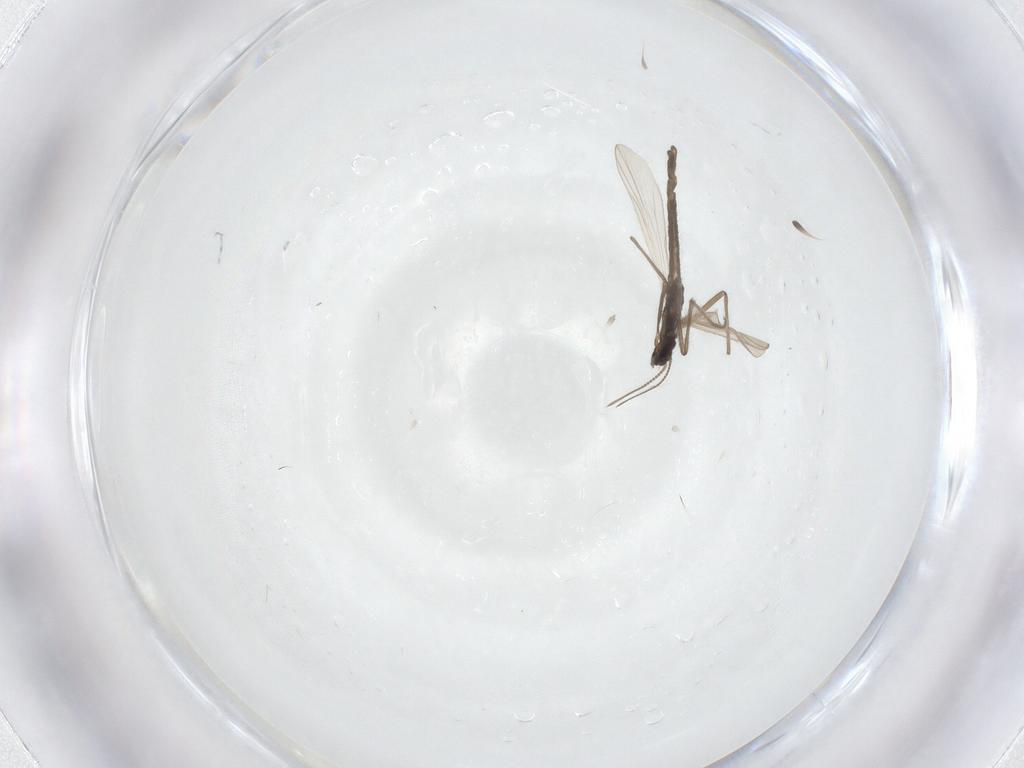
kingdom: Animalia
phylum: Arthropoda
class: Insecta
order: Diptera
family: Chironomidae
